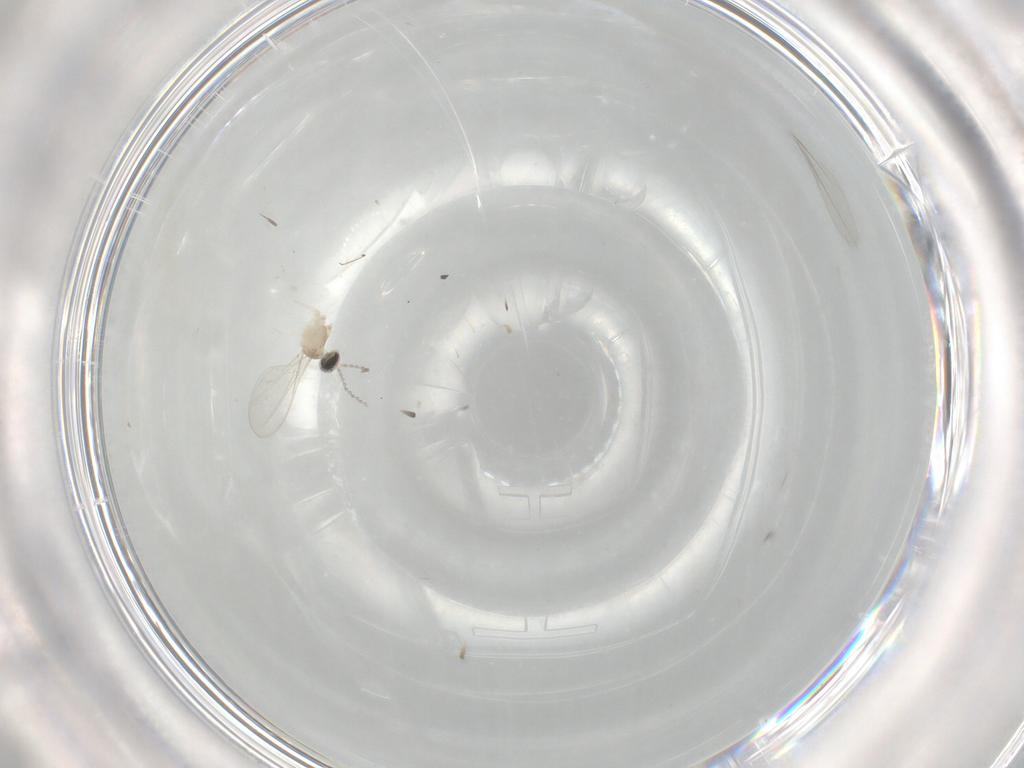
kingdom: Animalia
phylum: Arthropoda
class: Insecta
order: Diptera
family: Cecidomyiidae
